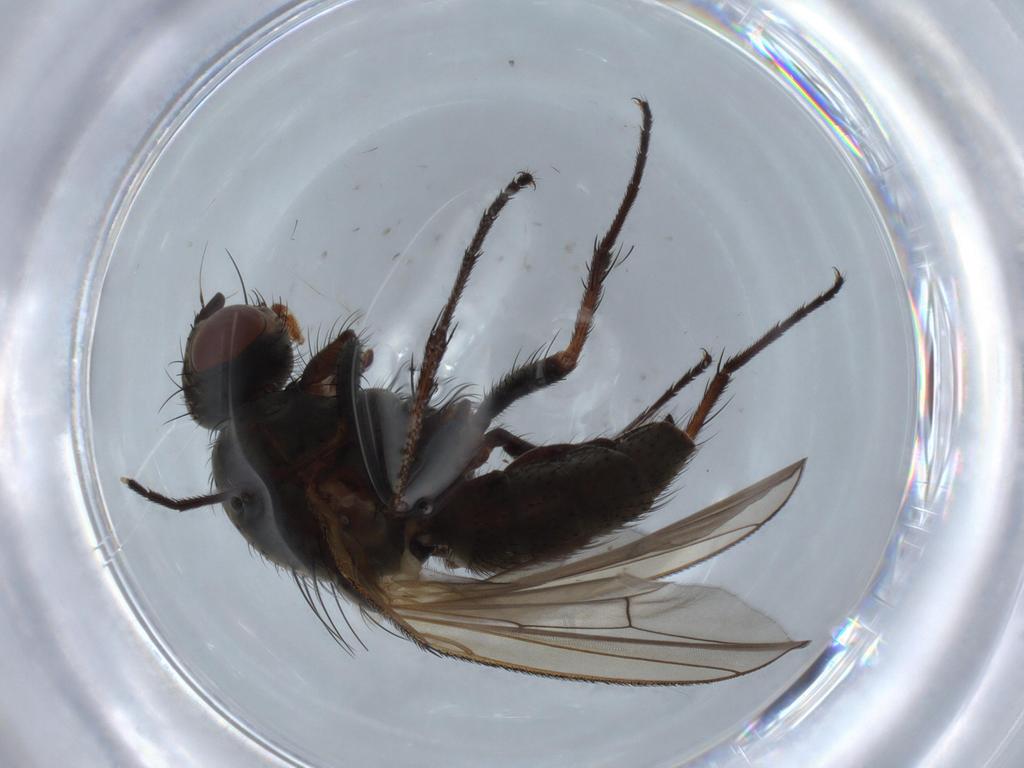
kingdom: Animalia
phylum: Arthropoda
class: Insecta
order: Diptera
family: Anthomyiidae
